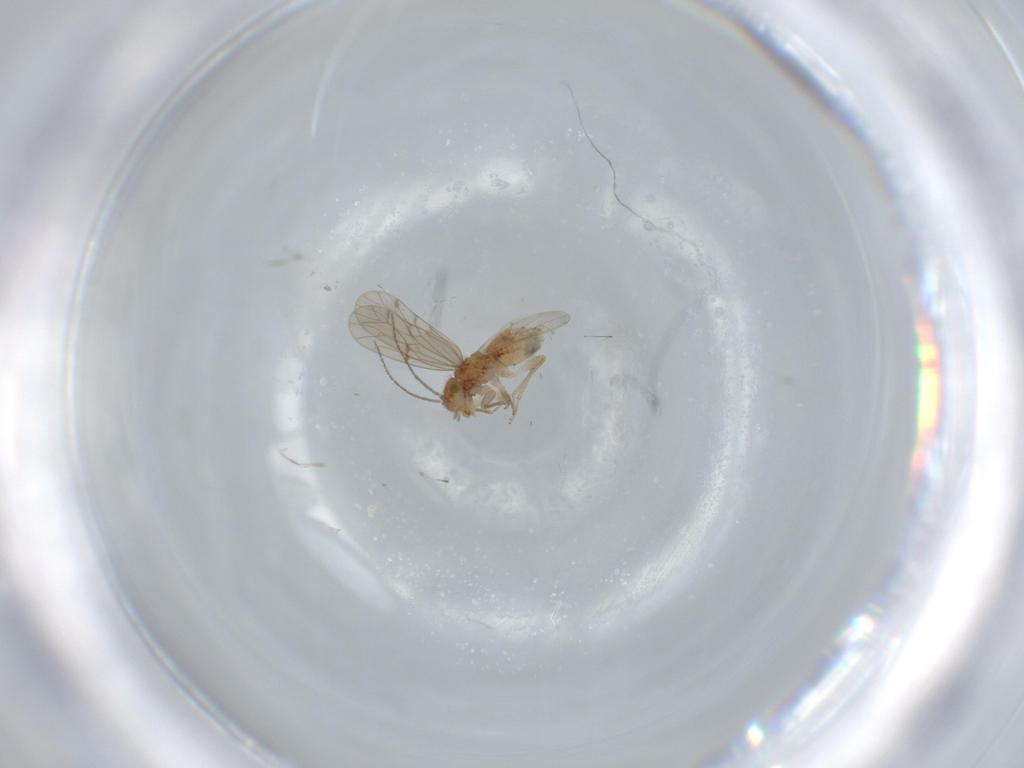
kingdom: Animalia
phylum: Arthropoda
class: Insecta
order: Psocodea
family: Ectopsocidae
